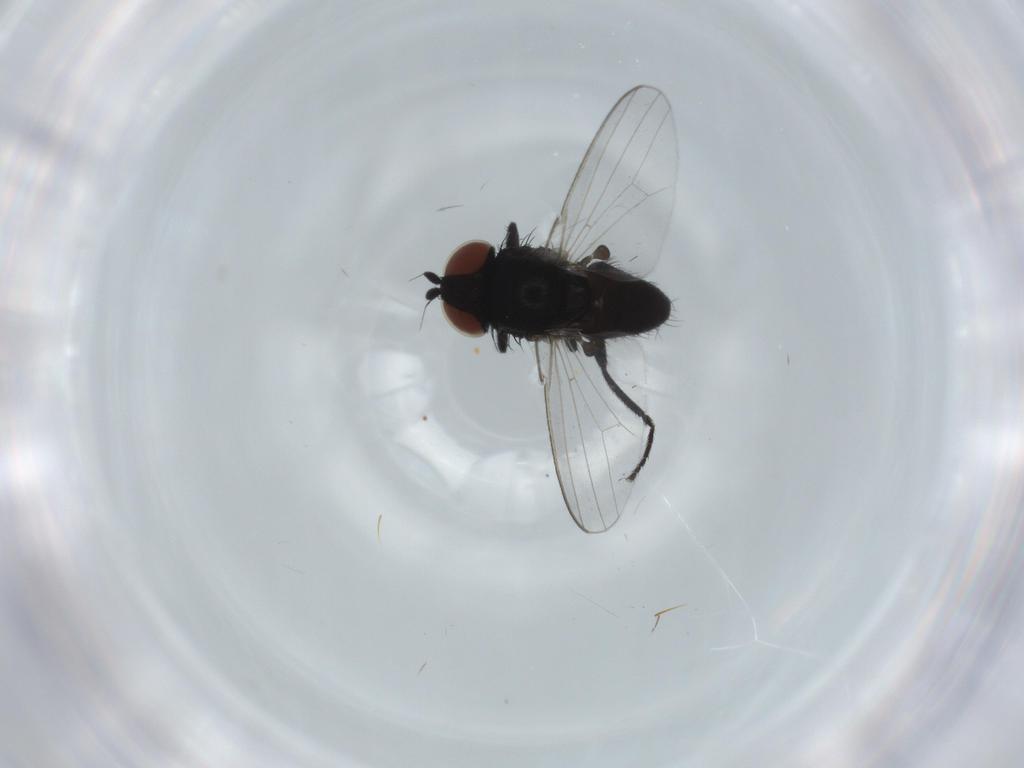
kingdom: Animalia
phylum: Arthropoda
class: Insecta
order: Diptera
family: Milichiidae
